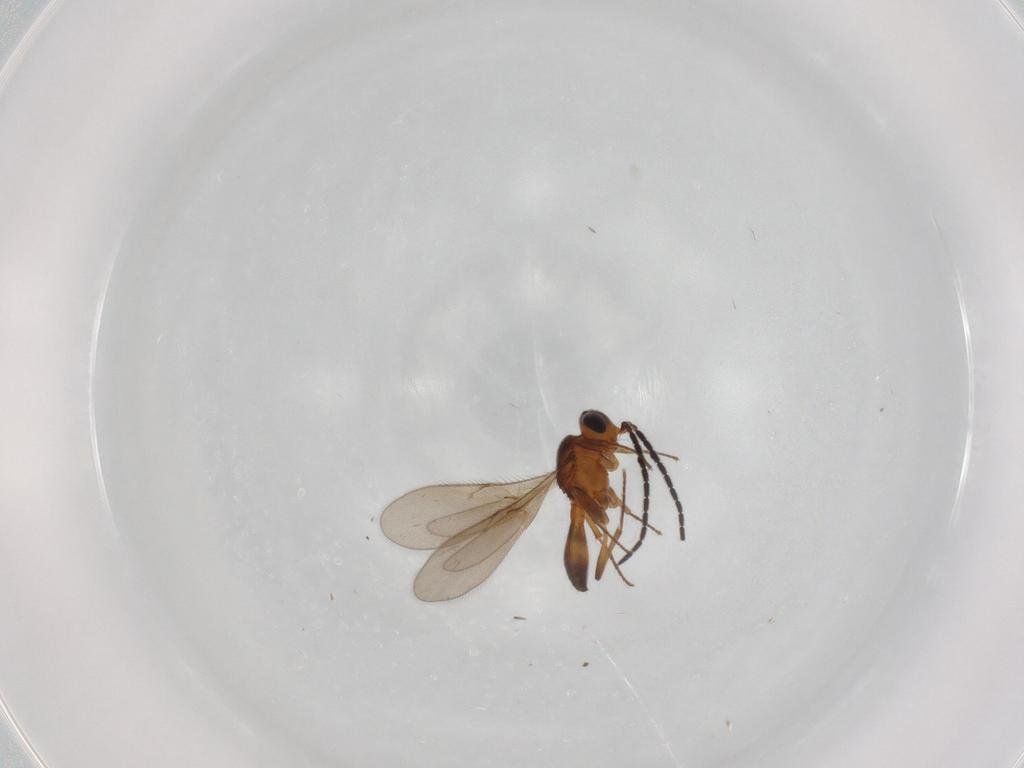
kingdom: Animalia
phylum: Arthropoda
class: Insecta
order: Hymenoptera
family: Scelionidae
